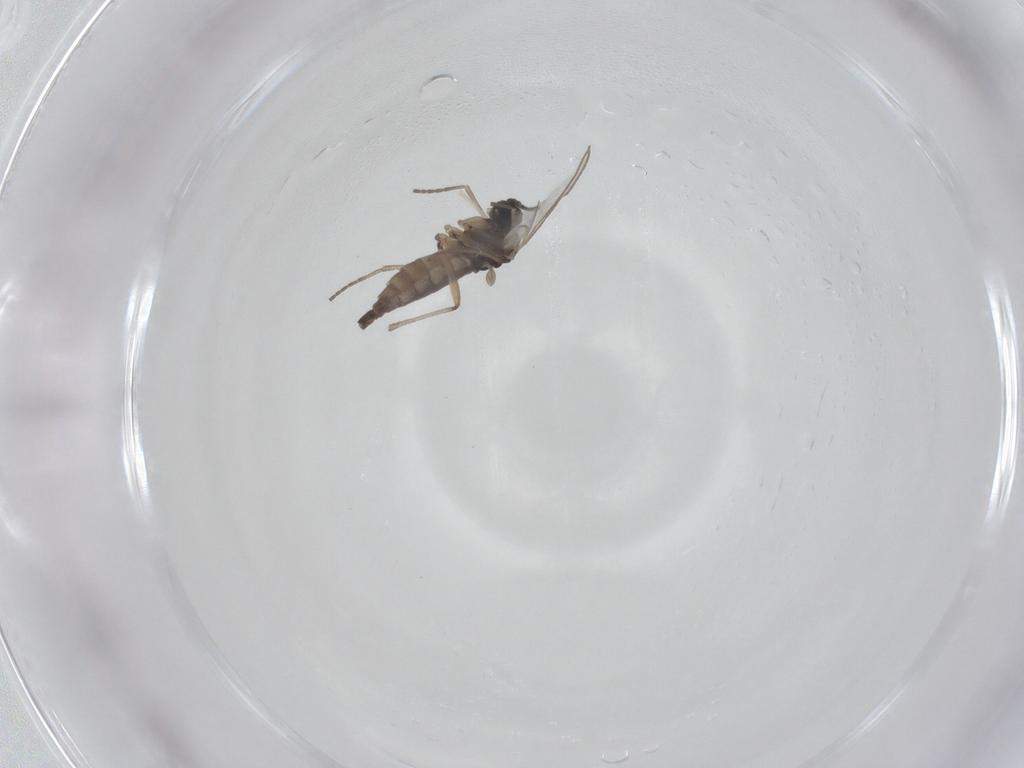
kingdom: Animalia
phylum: Arthropoda
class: Insecta
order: Diptera
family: Sciaridae
